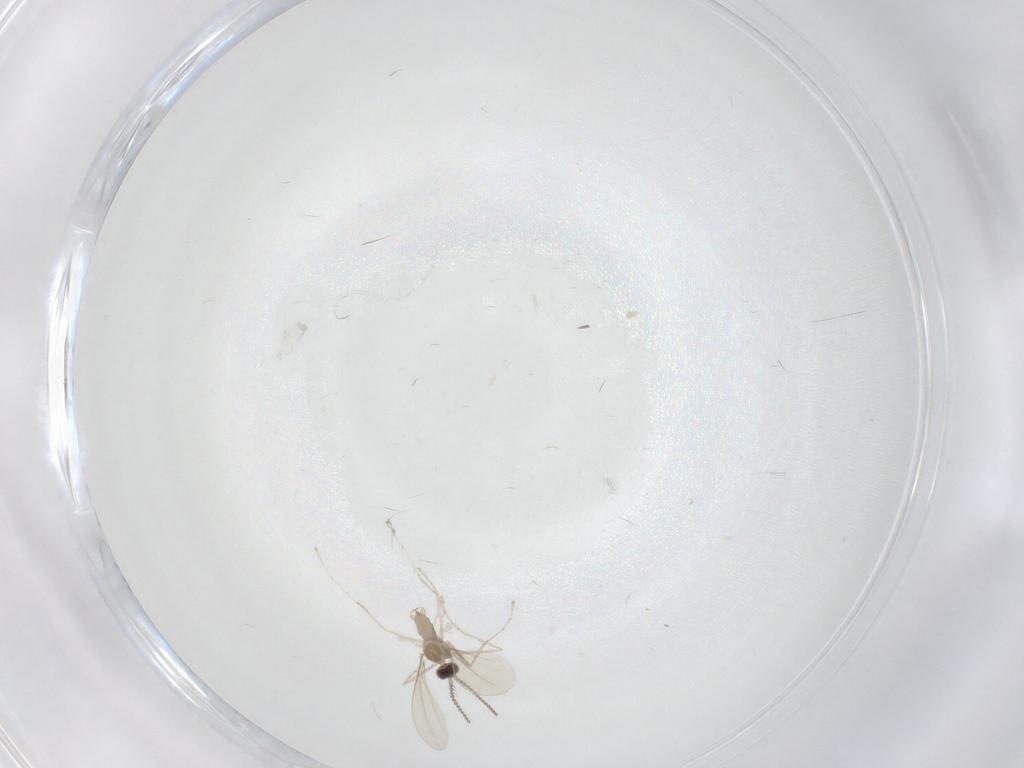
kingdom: Animalia
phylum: Arthropoda
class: Insecta
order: Diptera
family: Cecidomyiidae
